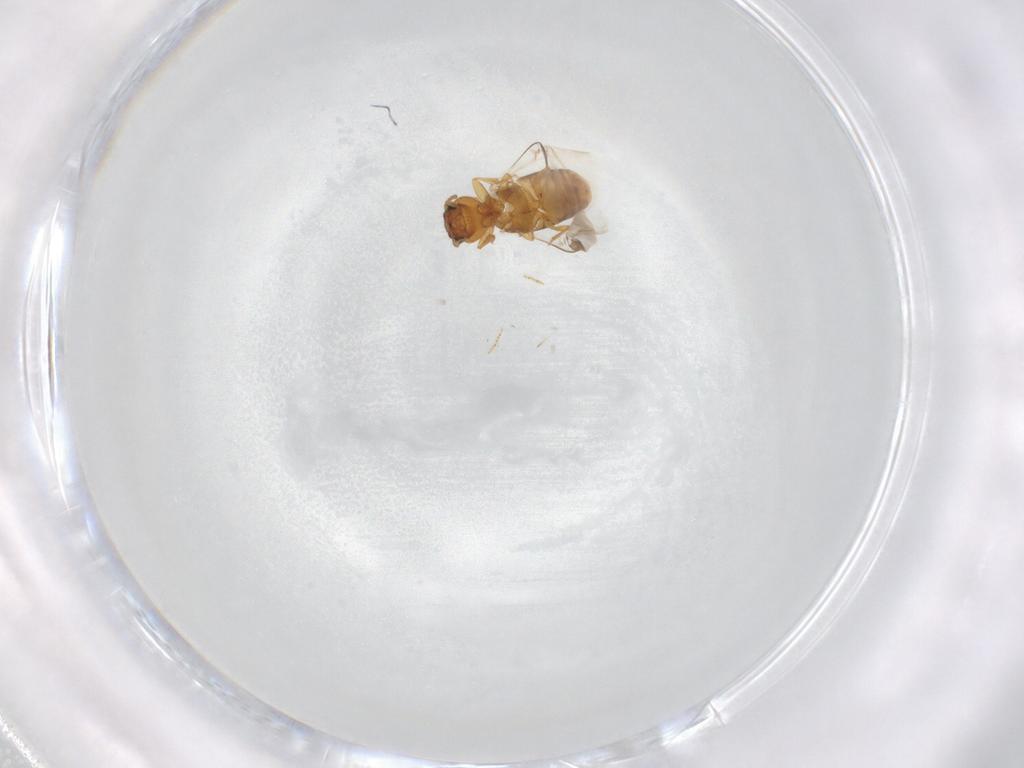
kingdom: Animalia
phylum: Arthropoda
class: Insecta
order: Coleoptera
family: Carabidae
